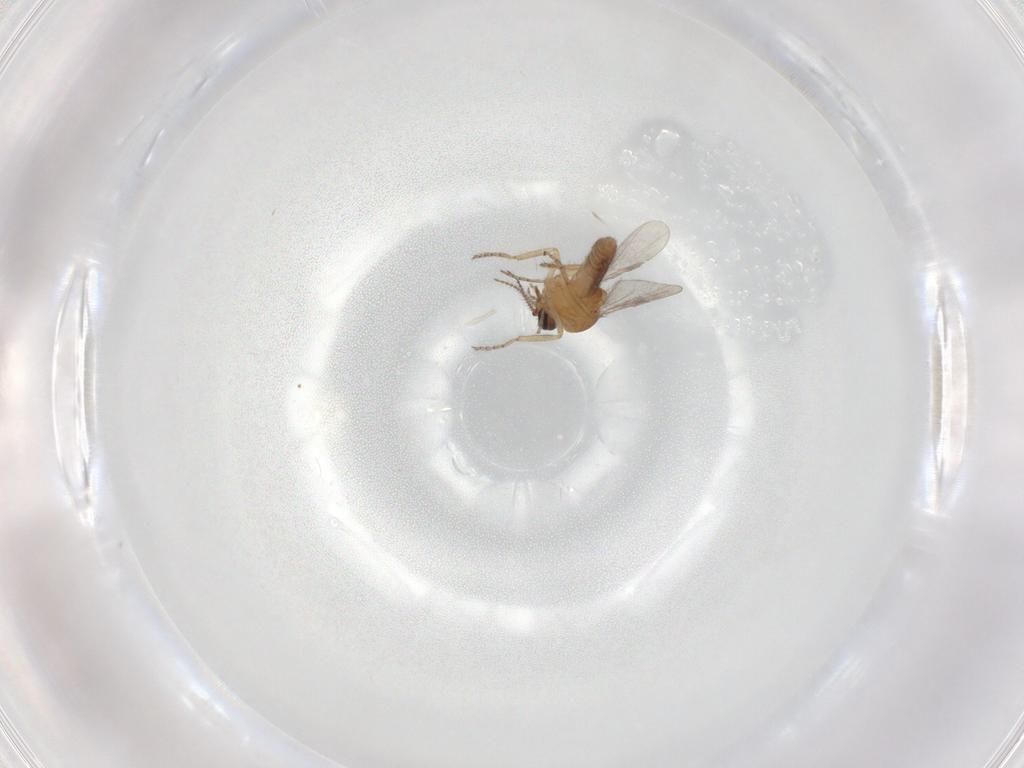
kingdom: Animalia
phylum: Arthropoda
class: Insecta
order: Diptera
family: Ceratopogonidae
